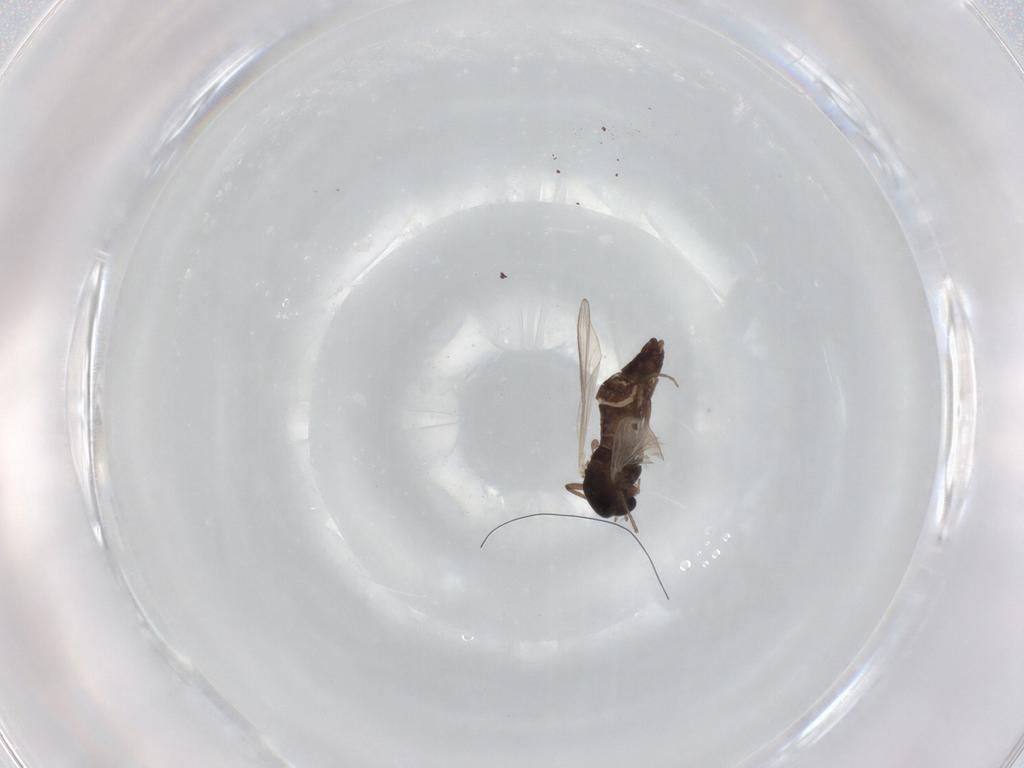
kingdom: Animalia
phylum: Arthropoda
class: Insecta
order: Diptera
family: Chironomidae
